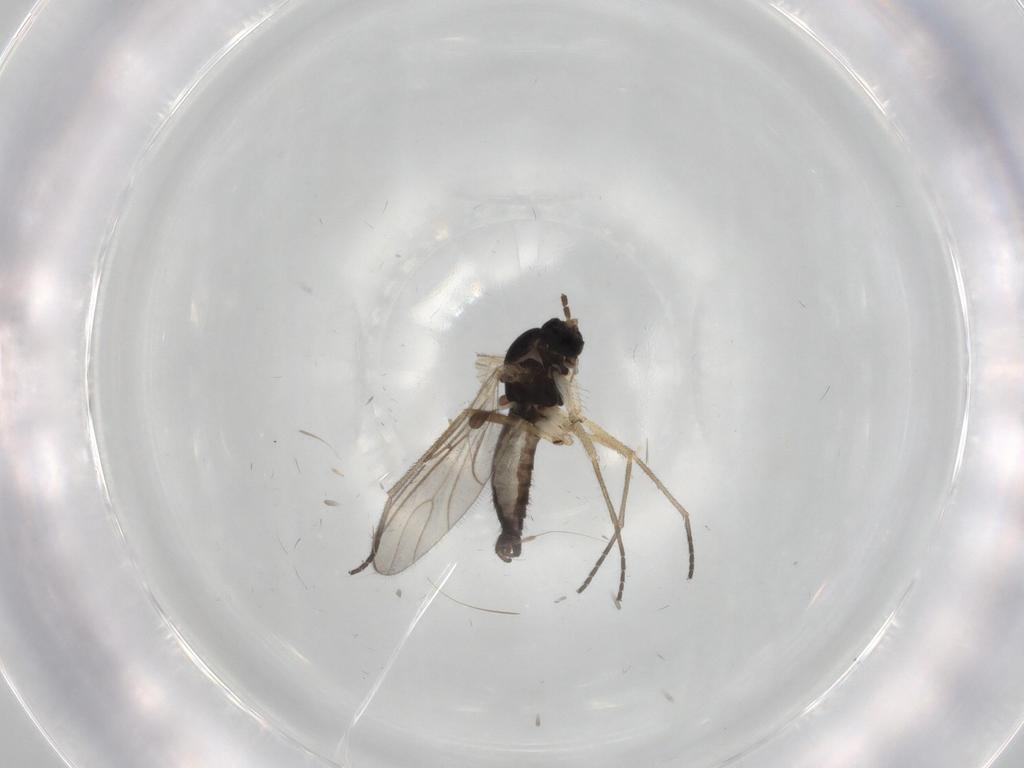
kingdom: Animalia
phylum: Arthropoda
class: Insecta
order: Diptera
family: Sciaridae
